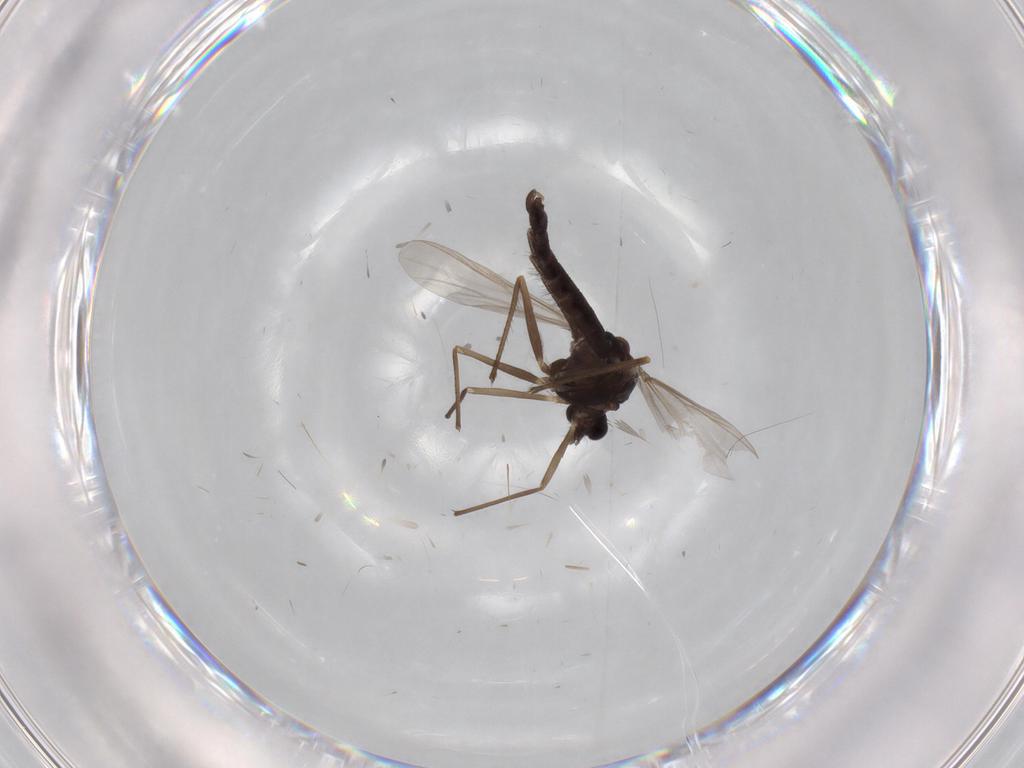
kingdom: Animalia
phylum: Arthropoda
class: Insecta
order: Diptera
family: Chironomidae
